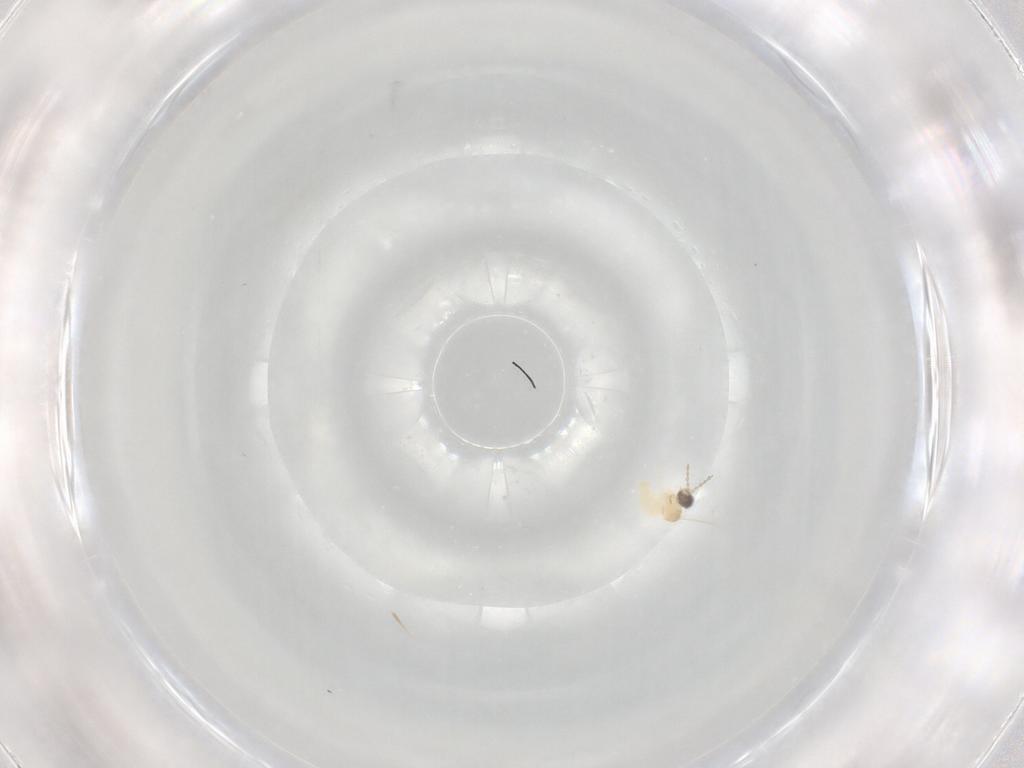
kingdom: Animalia
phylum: Arthropoda
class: Insecta
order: Diptera
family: Cecidomyiidae
